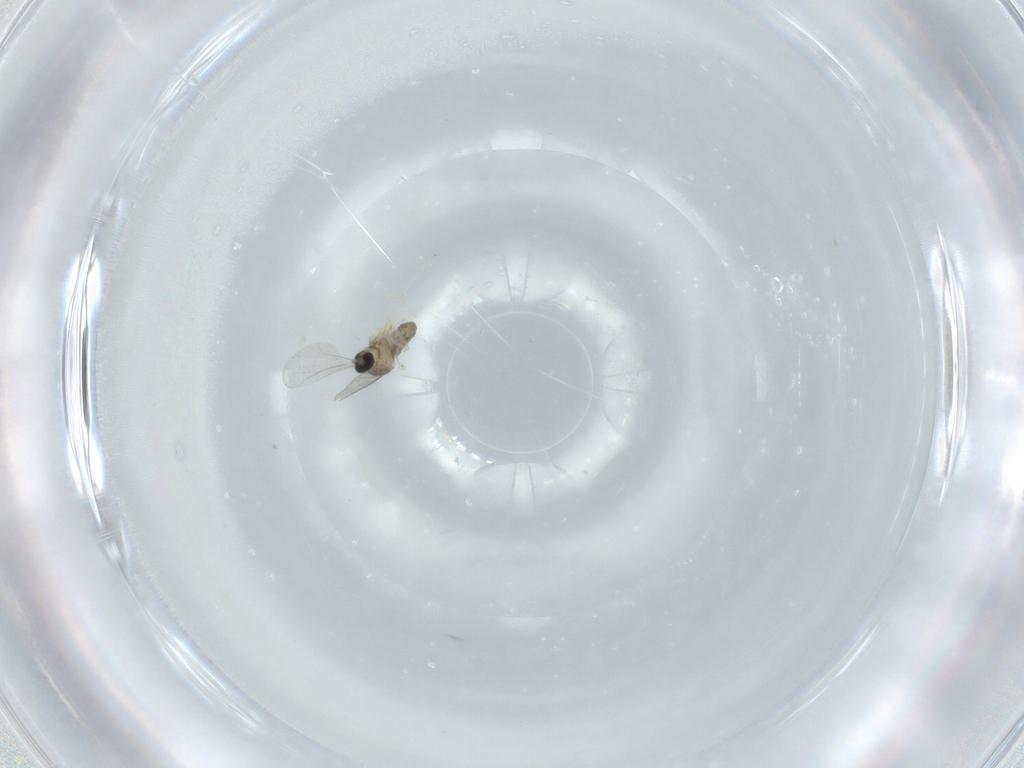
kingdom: Animalia
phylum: Arthropoda
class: Insecta
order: Diptera
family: Cecidomyiidae
